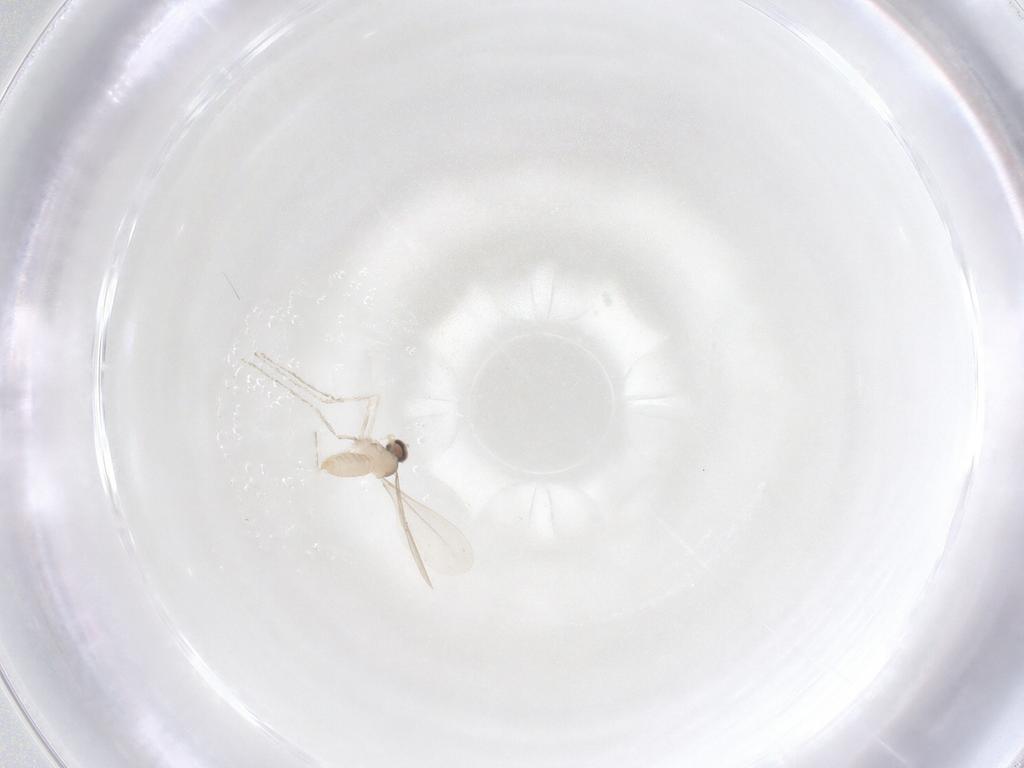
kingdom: Animalia
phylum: Arthropoda
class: Insecta
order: Diptera
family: Cecidomyiidae
